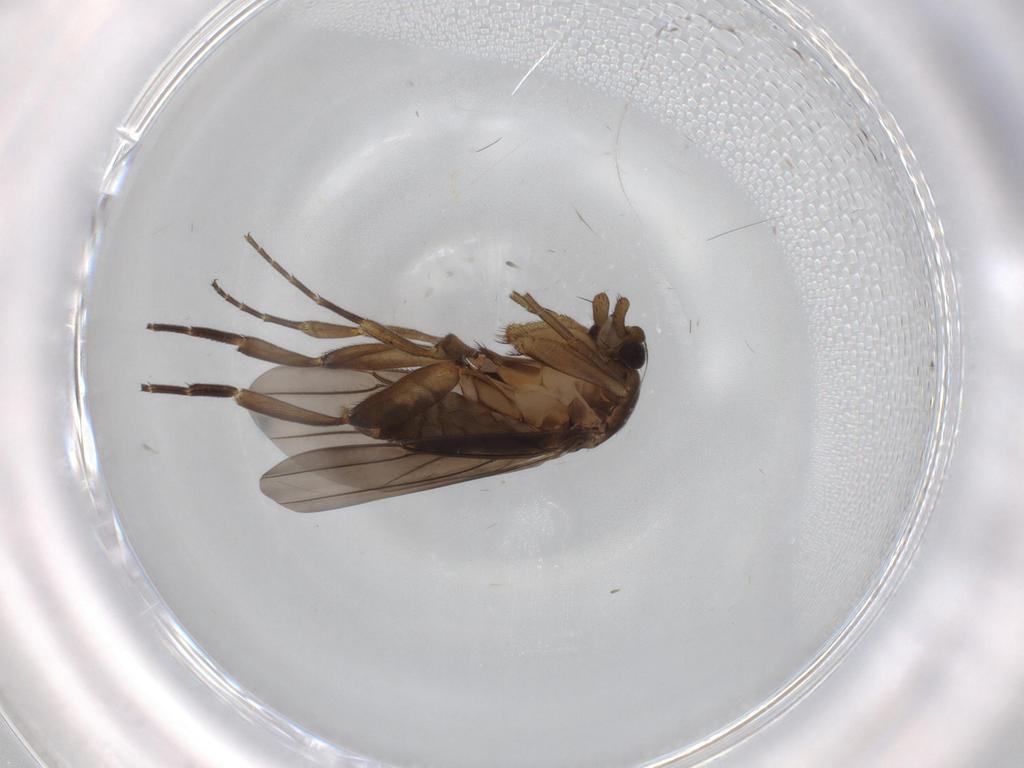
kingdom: Animalia
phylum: Arthropoda
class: Insecta
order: Diptera
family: Phoridae
